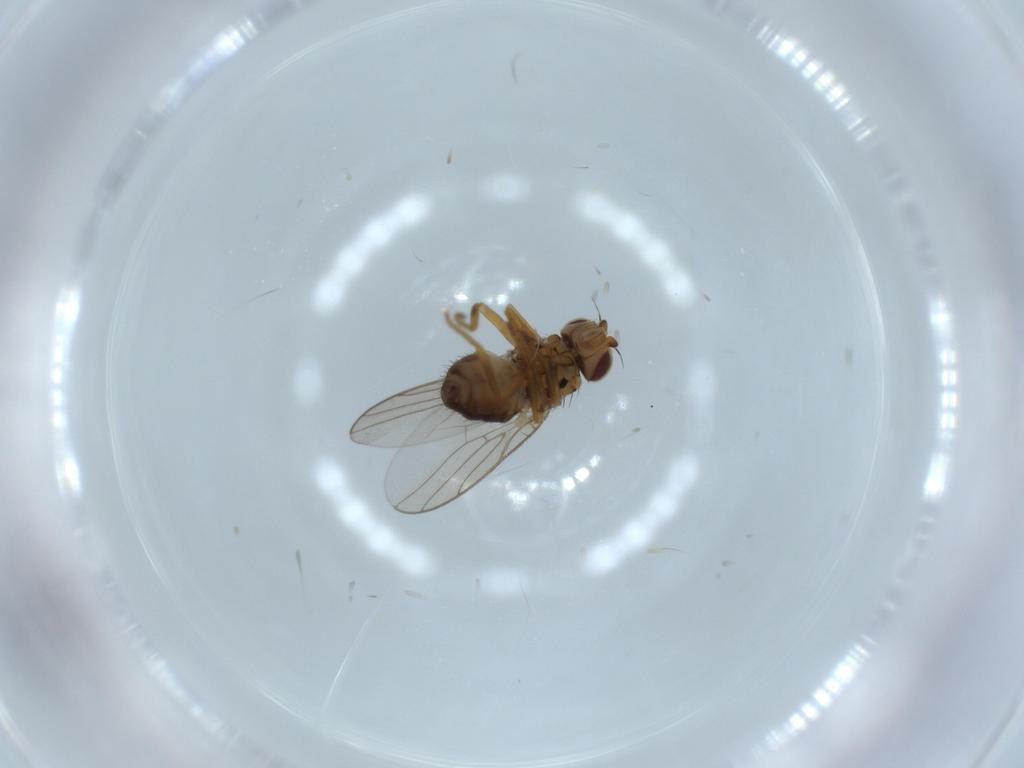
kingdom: Animalia
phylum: Arthropoda
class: Insecta
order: Diptera
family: Chloropidae
